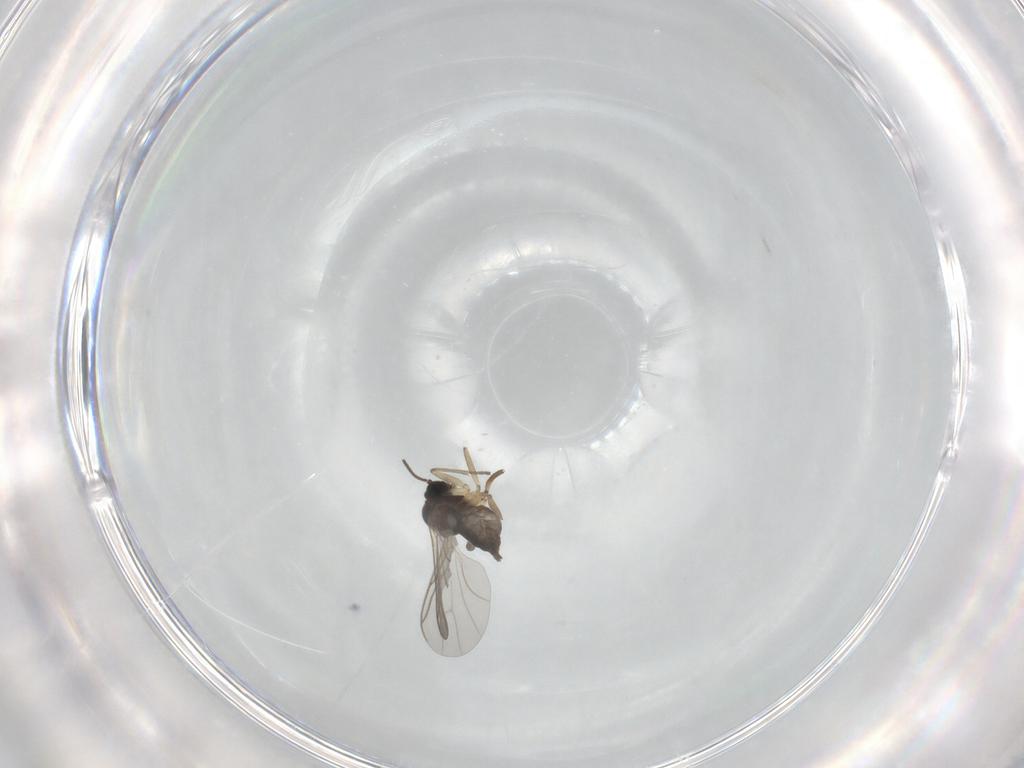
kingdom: Animalia
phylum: Arthropoda
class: Insecta
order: Diptera
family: Sciaridae
